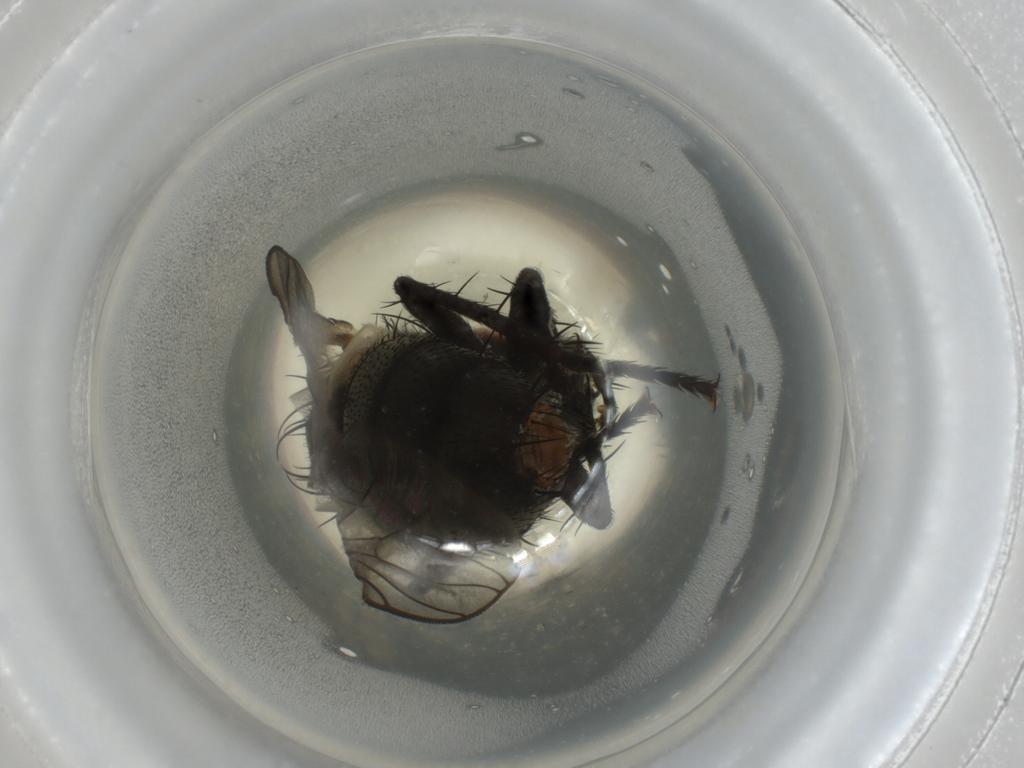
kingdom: Animalia
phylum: Arthropoda
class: Insecta
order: Diptera
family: Sarcophagidae
